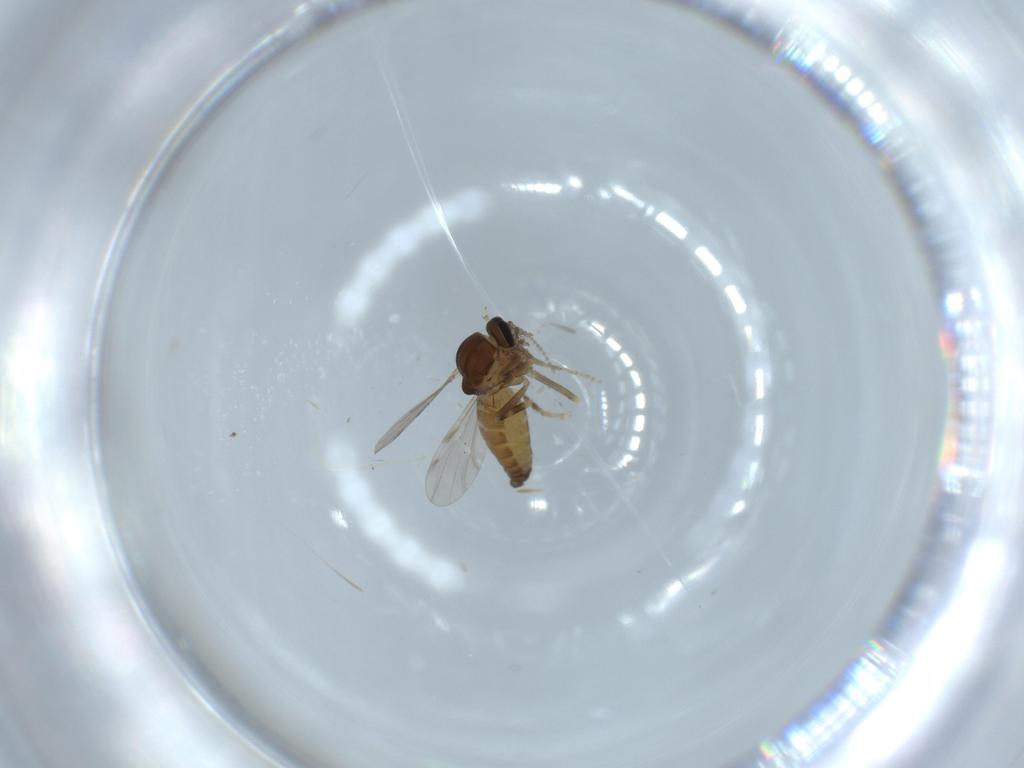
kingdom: Animalia
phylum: Arthropoda
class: Insecta
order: Diptera
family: Ceratopogonidae
